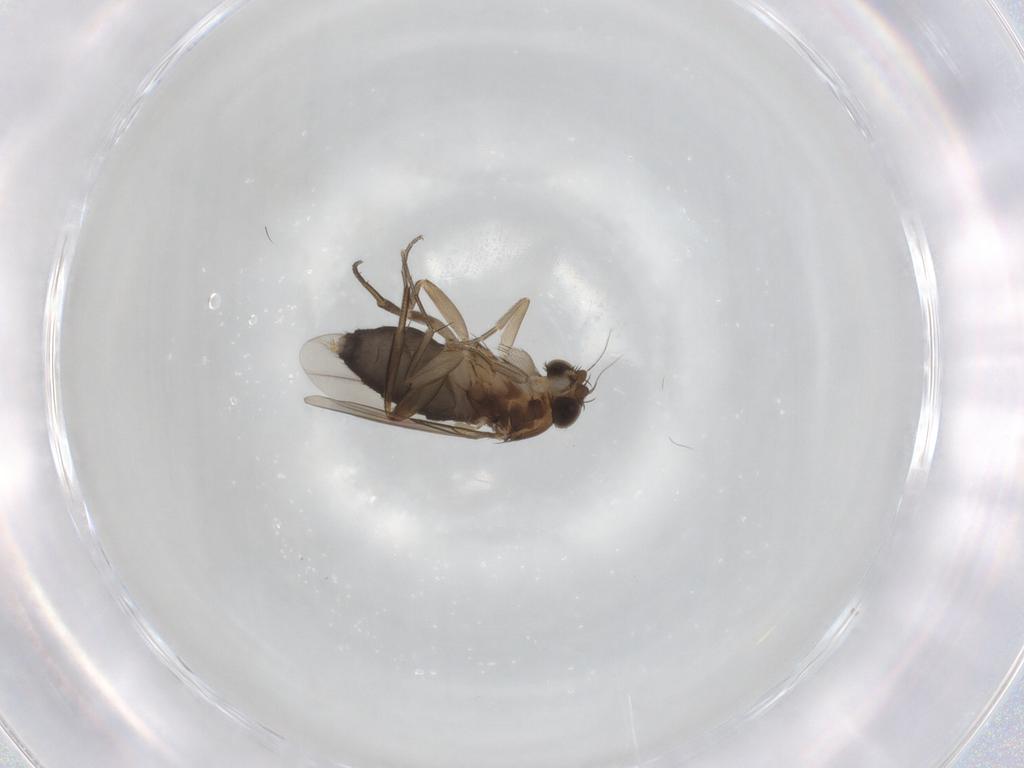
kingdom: Animalia
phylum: Arthropoda
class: Insecta
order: Diptera
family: Phoridae
